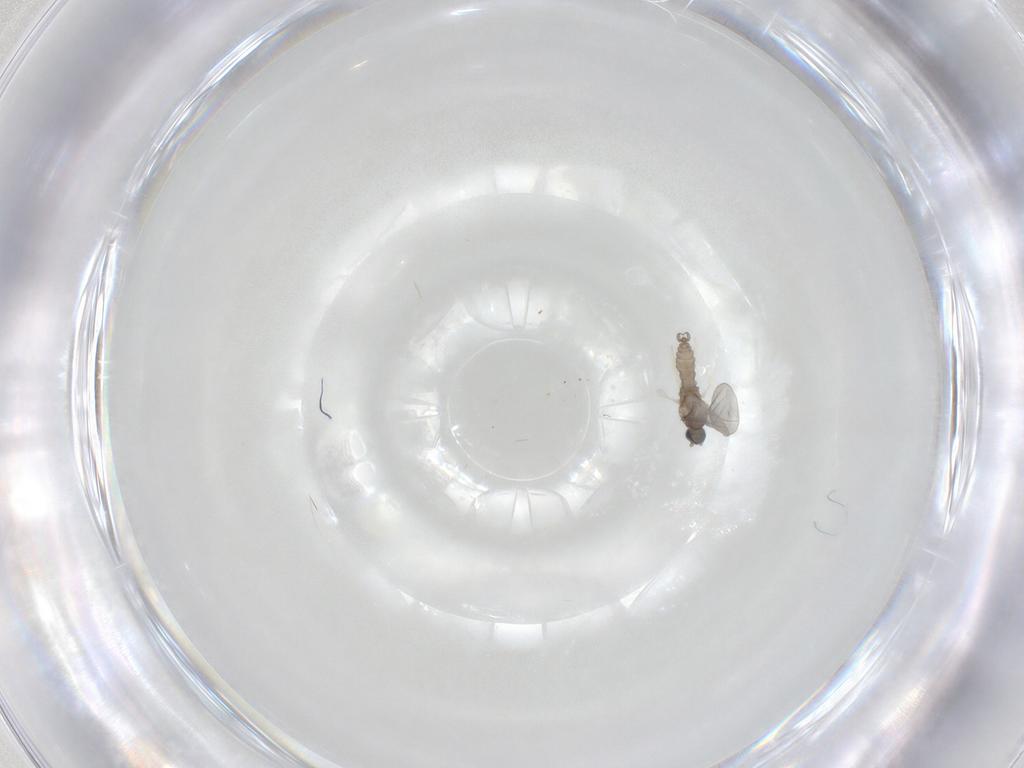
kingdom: Animalia
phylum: Arthropoda
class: Insecta
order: Diptera
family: Cecidomyiidae
